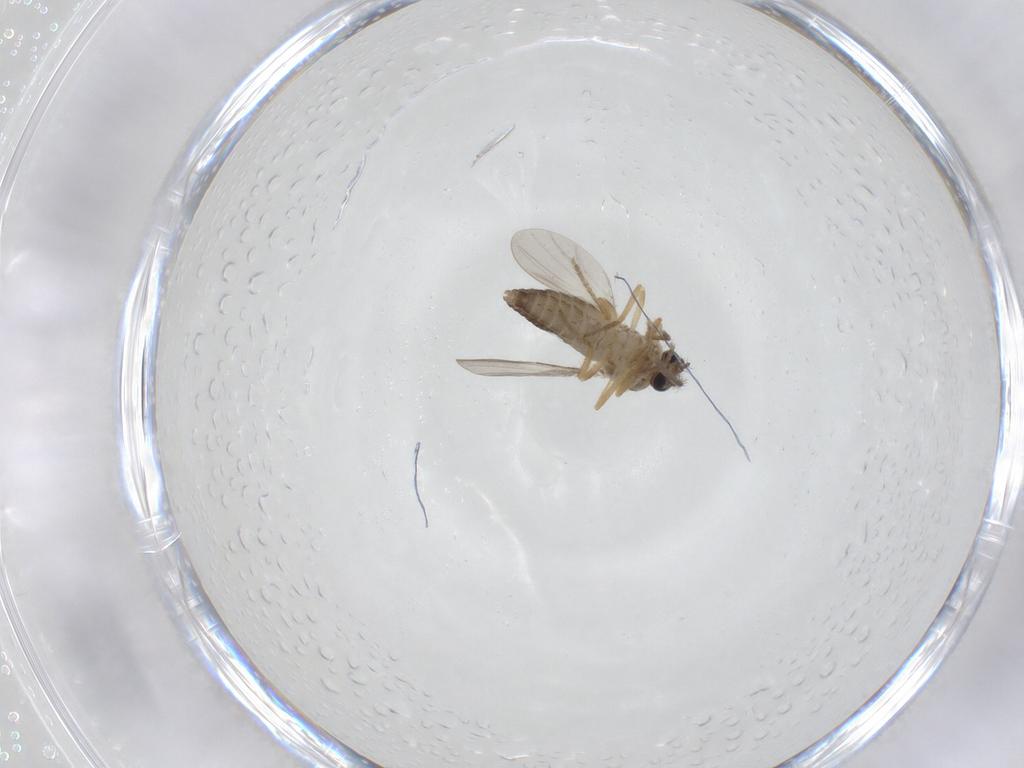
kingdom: Animalia
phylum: Arthropoda
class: Insecta
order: Diptera
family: Ceratopogonidae
